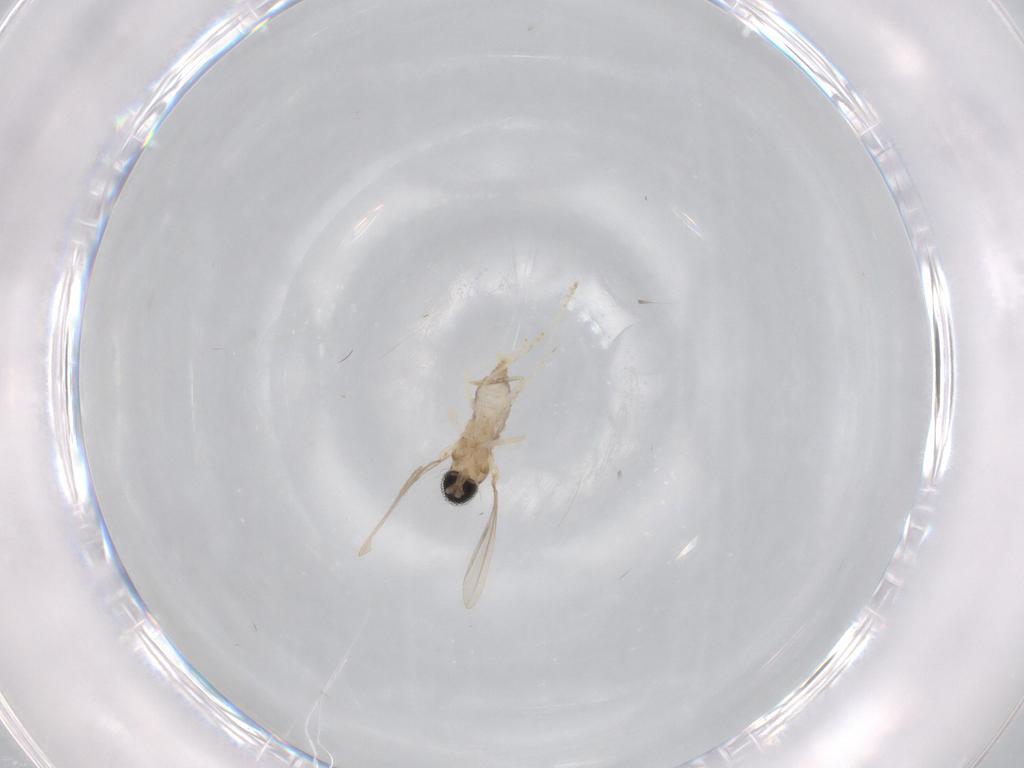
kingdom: Animalia
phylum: Arthropoda
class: Insecta
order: Diptera
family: Cecidomyiidae
